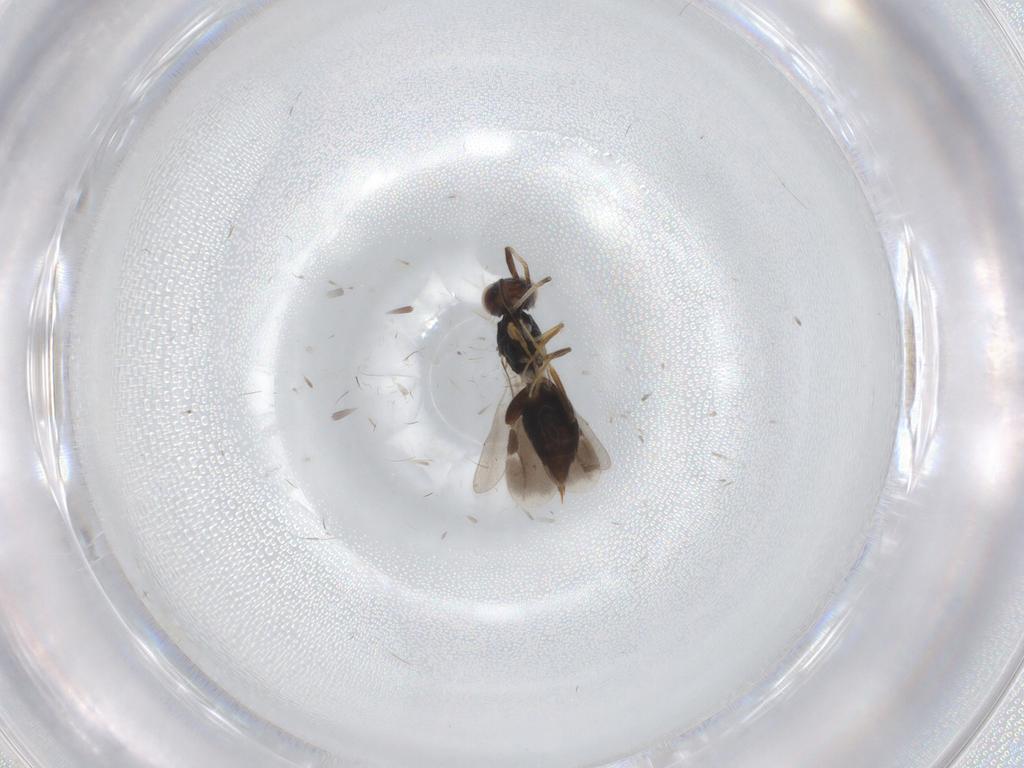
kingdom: Animalia
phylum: Arthropoda
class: Insecta
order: Hymenoptera
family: Megaspilidae
